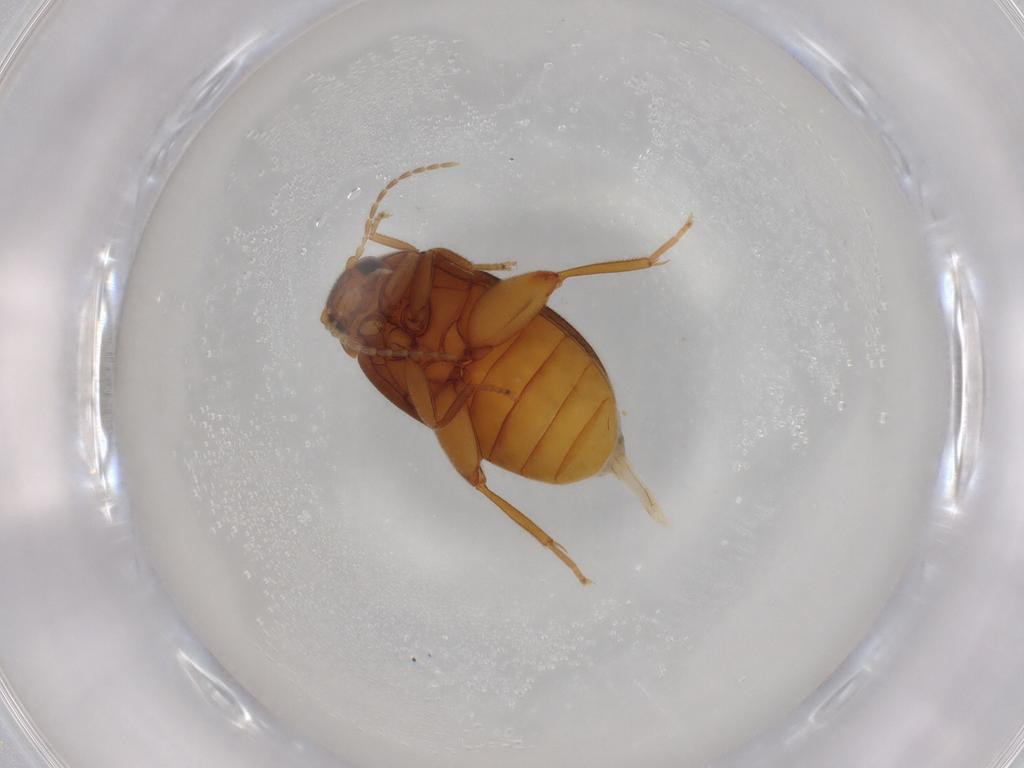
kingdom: Animalia
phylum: Arthropoda
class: Insecta
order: Coleoptera
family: Scirtidae
